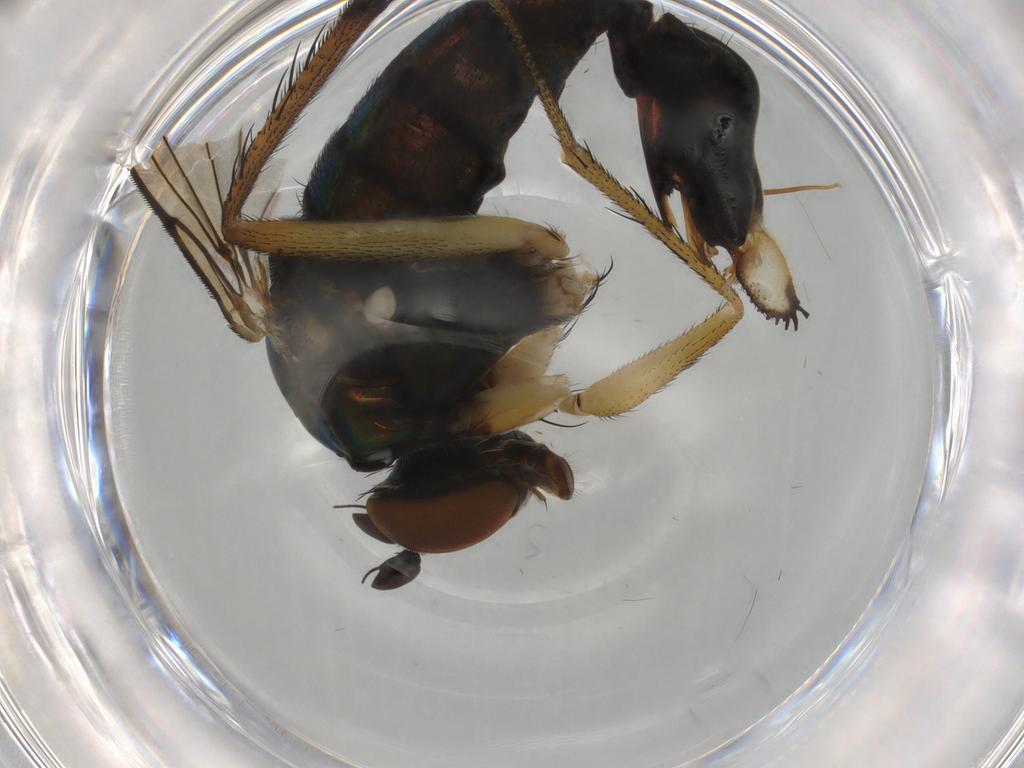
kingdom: Animalia
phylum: Arthropoda
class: Insecta
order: Diptera
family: Dolichopodidae
